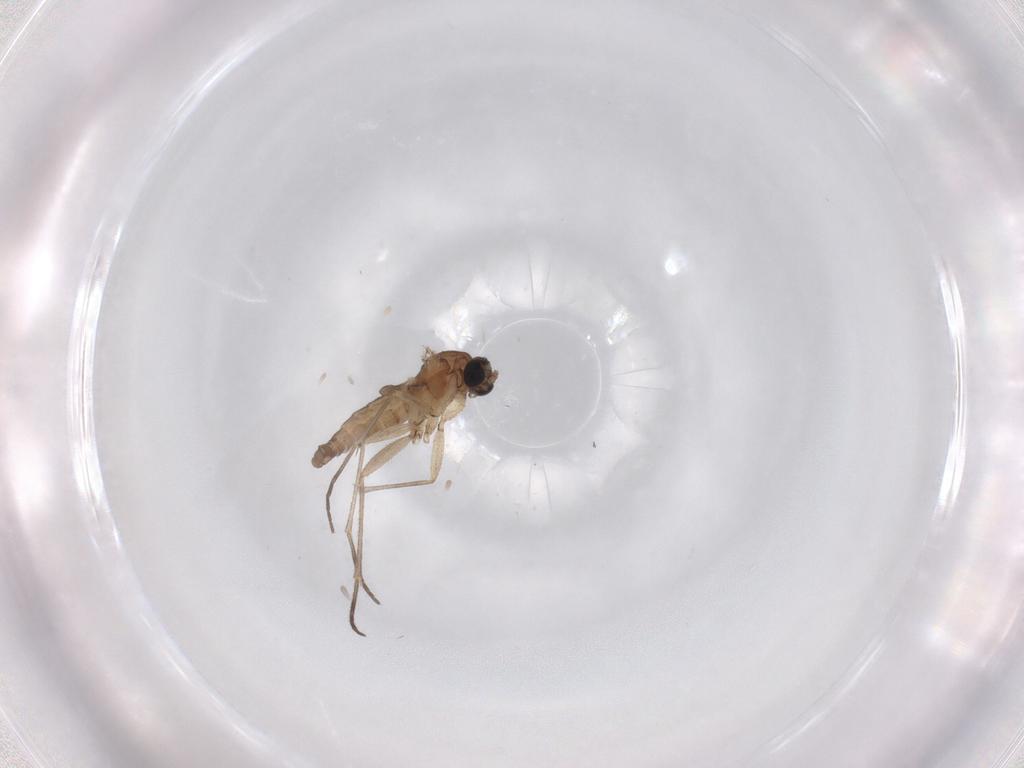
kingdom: Animalia
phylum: Arthropoda
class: Insecta
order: Diptera
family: Sciaridae
